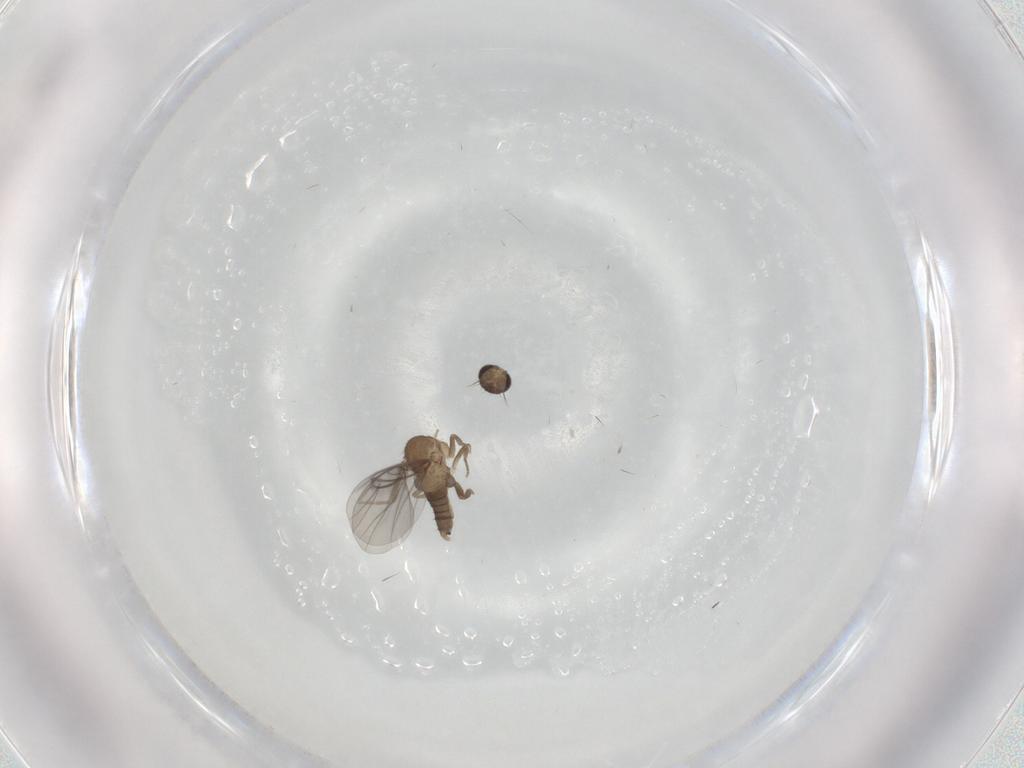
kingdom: Animalia
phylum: Arthropoda
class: Insecta
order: Diptera
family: Sciaridae
